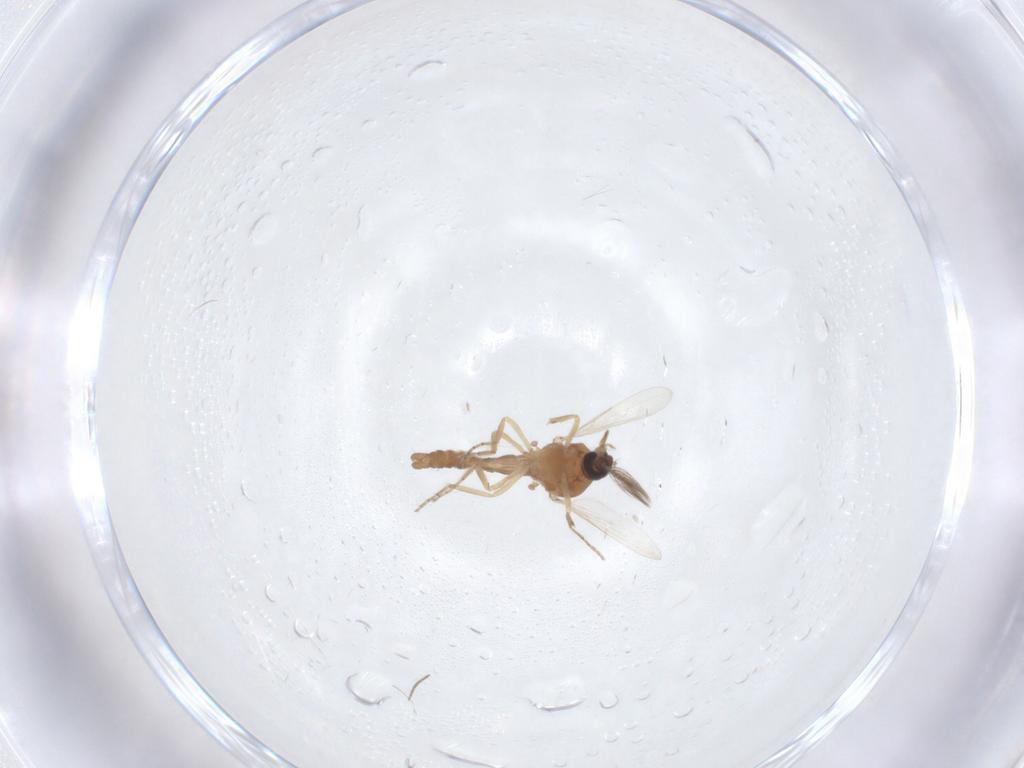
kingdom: Animalia
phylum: Arthropoda
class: Insecta
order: Diptera
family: Ceratopogonidae
